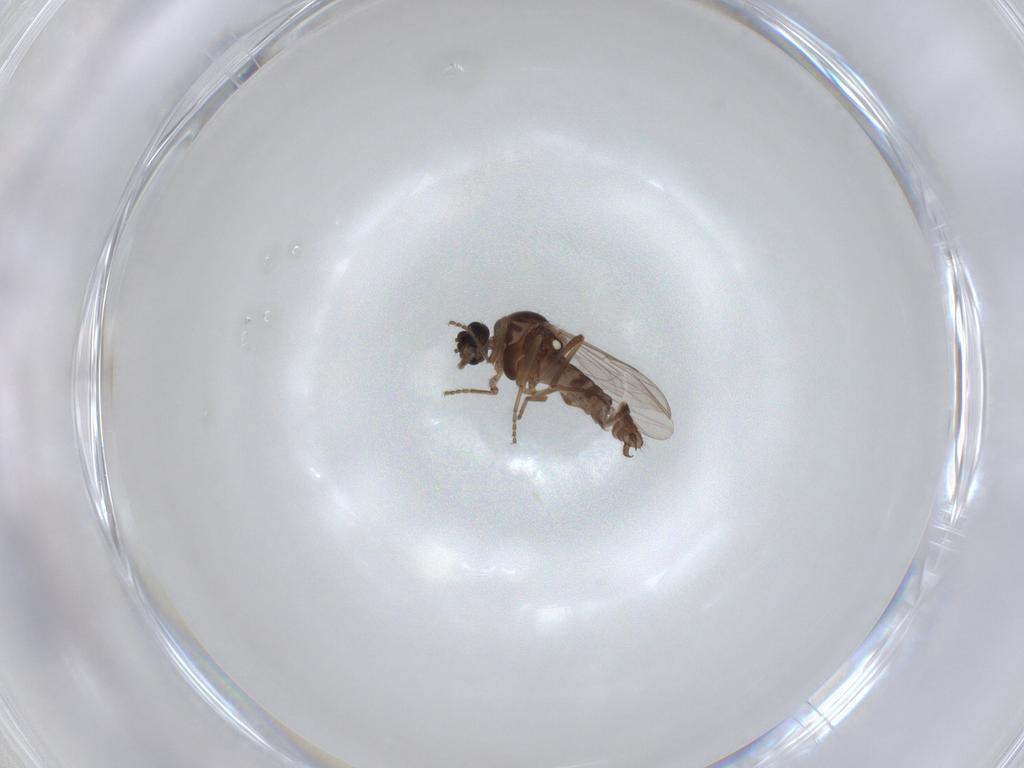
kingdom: Animalia
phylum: Arthropoda
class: Insecta
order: Diptera
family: Ceratopogonidae
